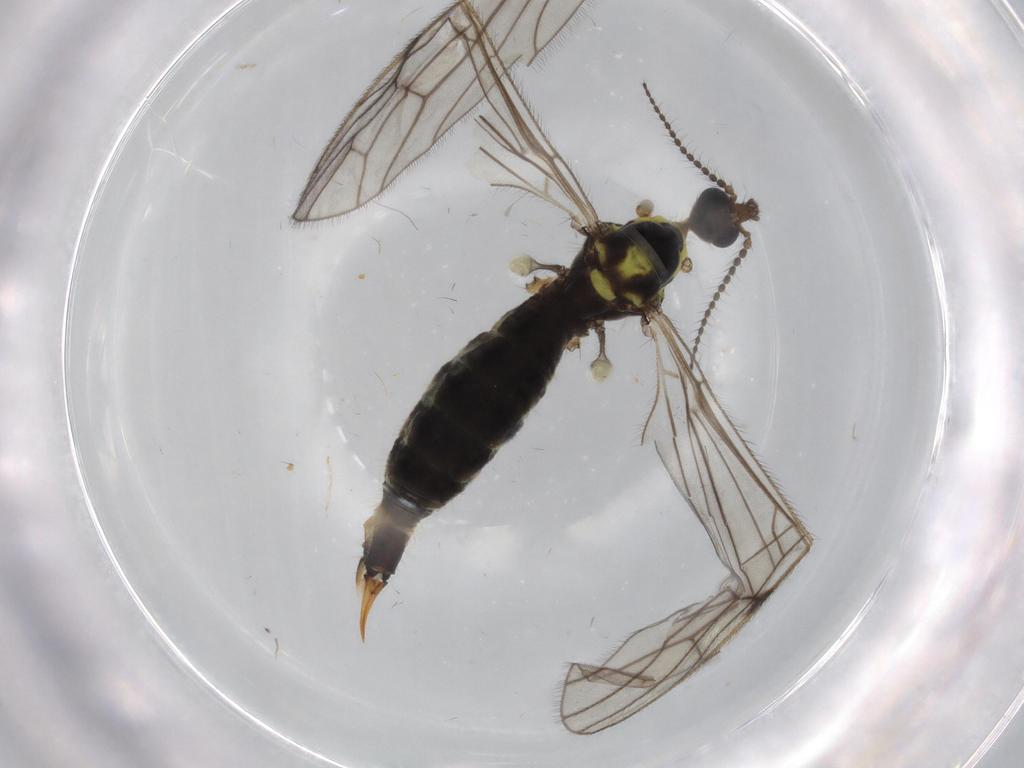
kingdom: Animalia
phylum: Arthropoda
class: Insecta
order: Diptera
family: Limoniidae
